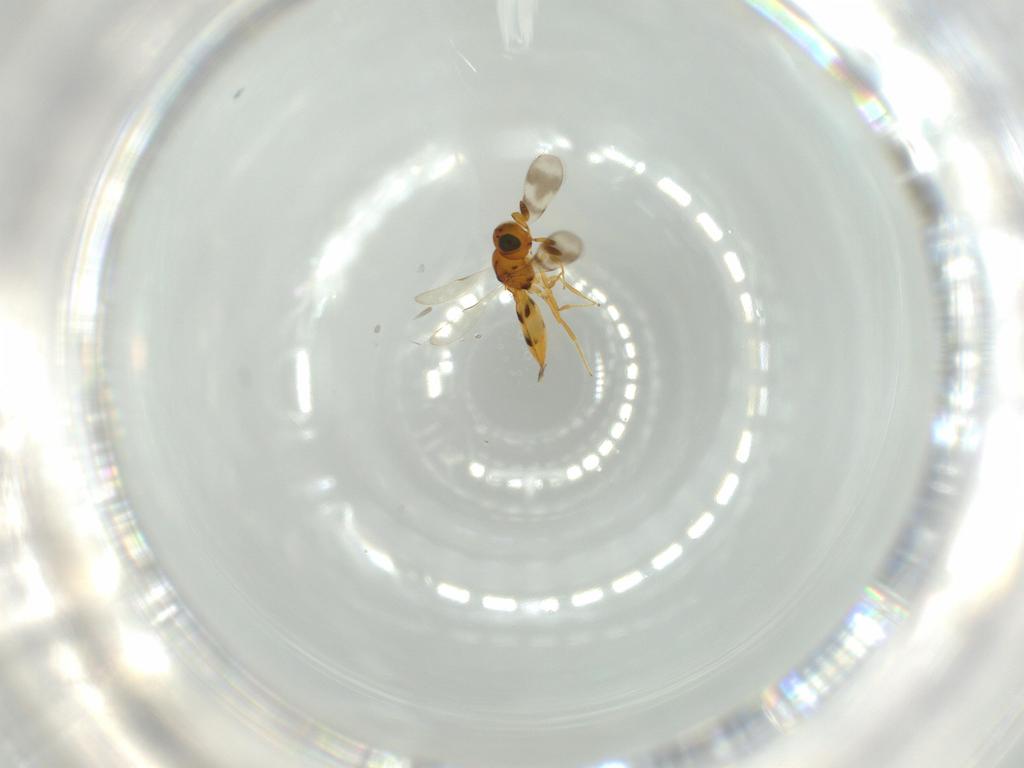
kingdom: Animalia
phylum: Arthropoda
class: Insecta
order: Hymenoptera
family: Scelionidae
